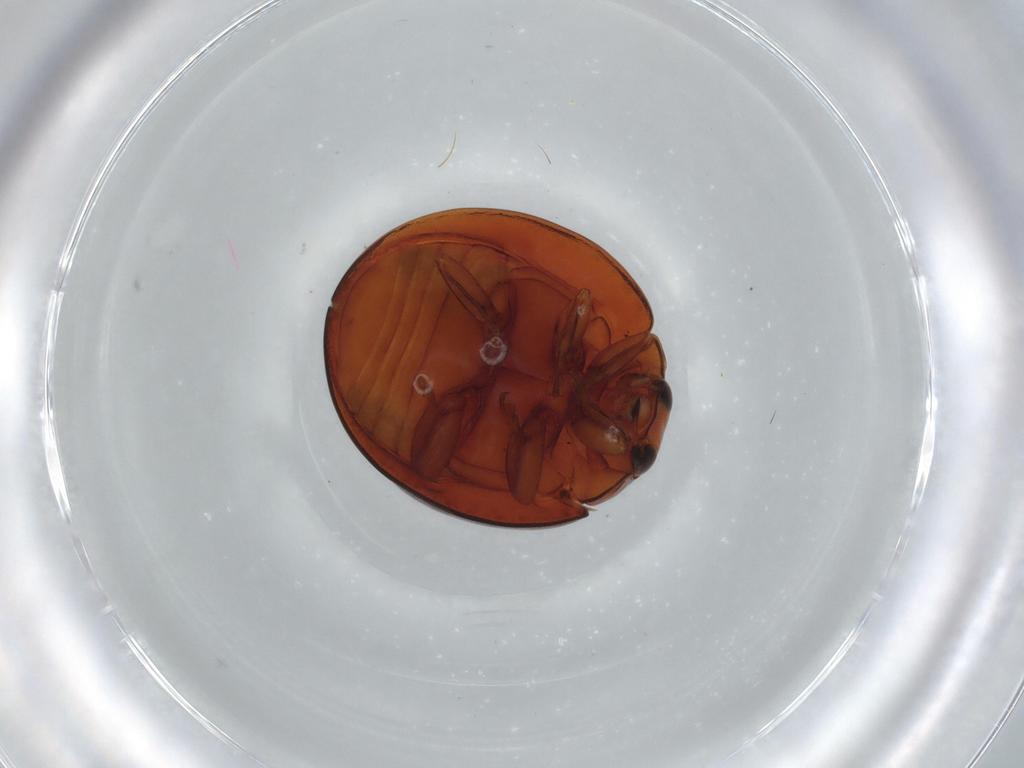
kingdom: Animalia
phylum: Arthropoda
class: Insecta
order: Coleoptera
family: Coccinellidae
